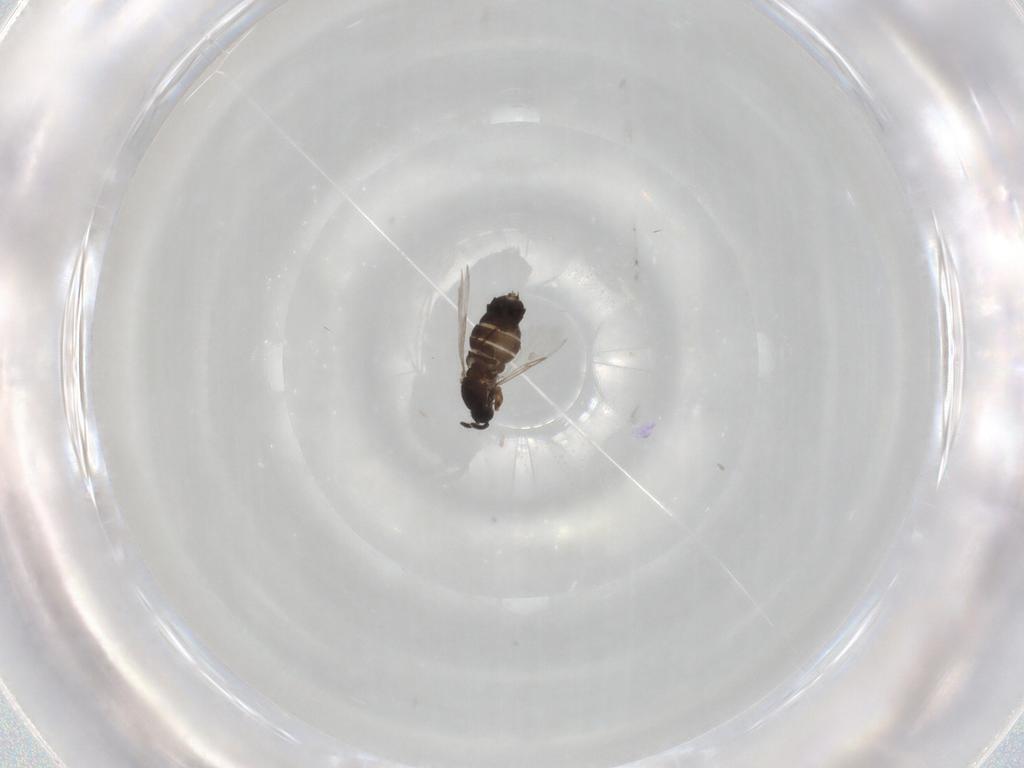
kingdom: Animalia
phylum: Arthropoda
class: Insecta
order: Diptera
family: Scatopsidae
